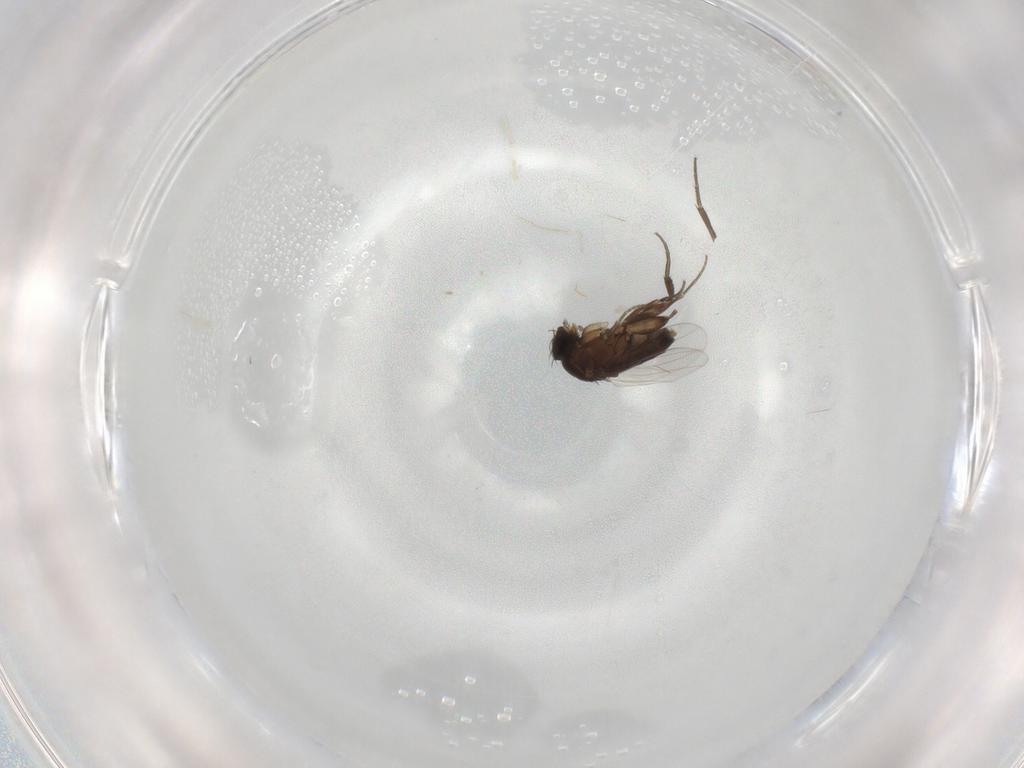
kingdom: Animalia
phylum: Arthropoda
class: Insecta
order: Diptera
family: Phoridae
